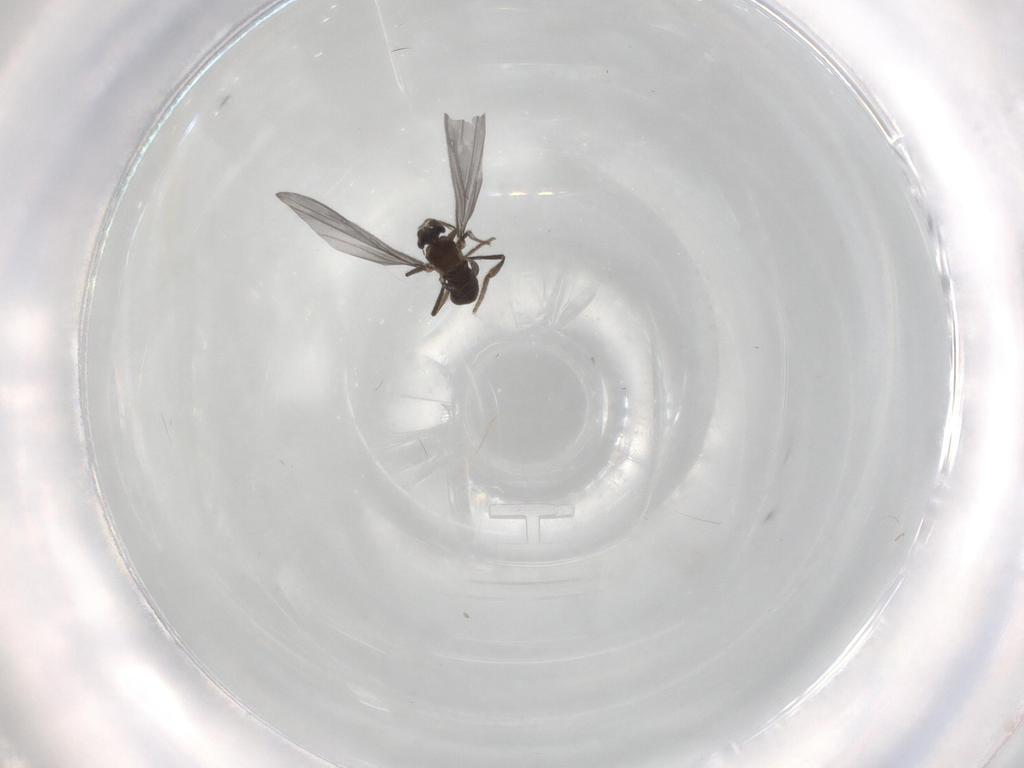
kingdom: Animalia
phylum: Arthropoda
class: Insecta
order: Diptera
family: Phoridae
